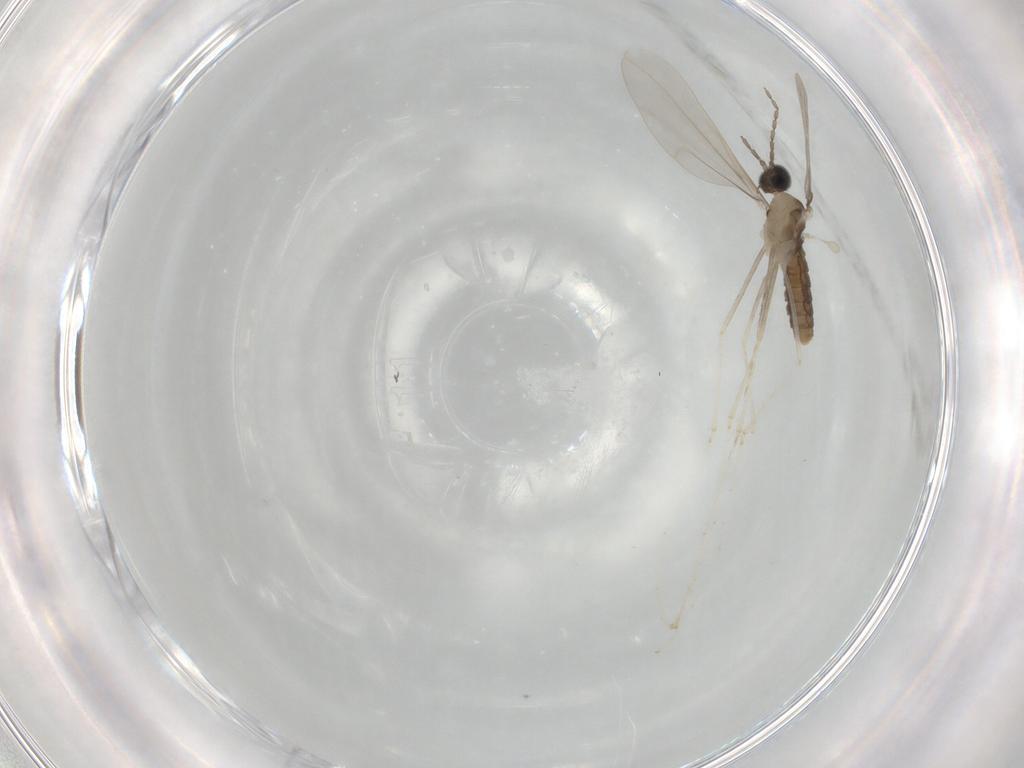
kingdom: Animalia
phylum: Arthropoda
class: Insecta
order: Diptera
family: Cecidomyiidae
